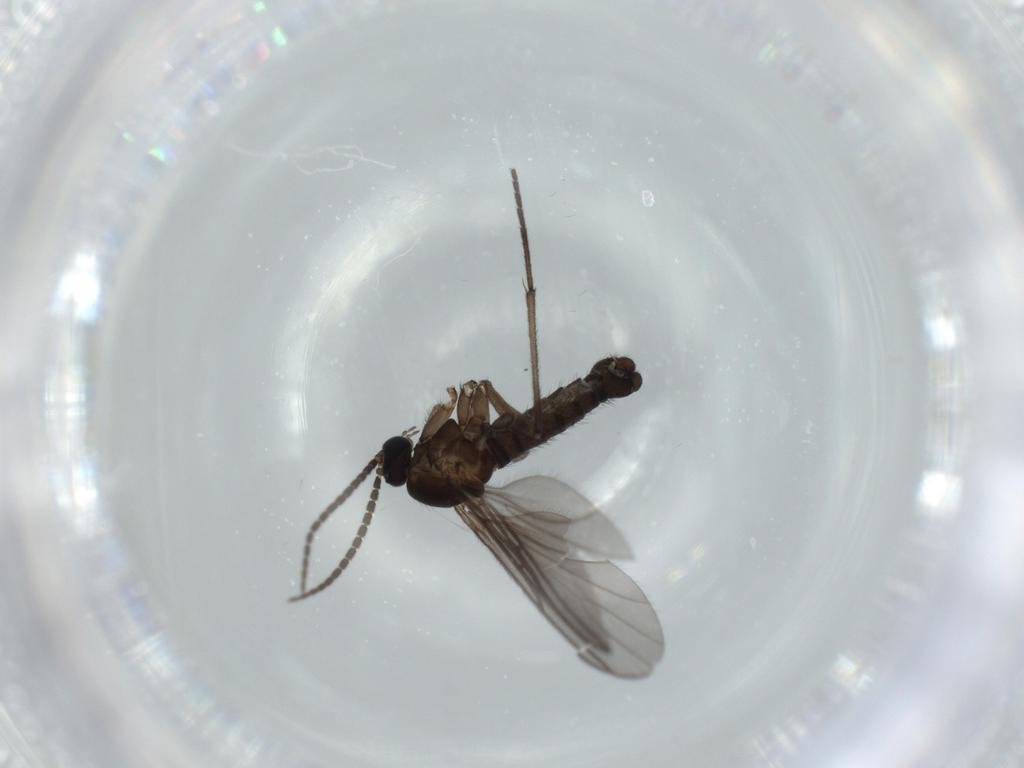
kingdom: Animalia
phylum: Arthropoda
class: Insecta
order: Diptera
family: Sciaridae
